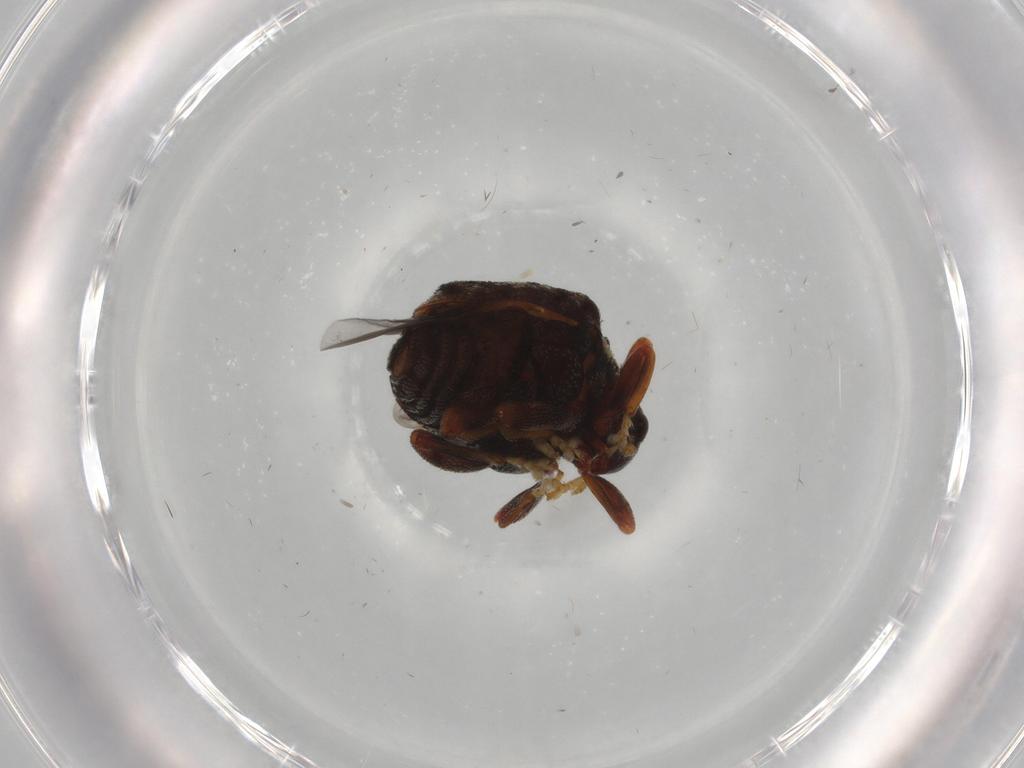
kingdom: Animalia
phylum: Arthropoda
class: Insecta
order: Coleoptera
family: Curculionidae
